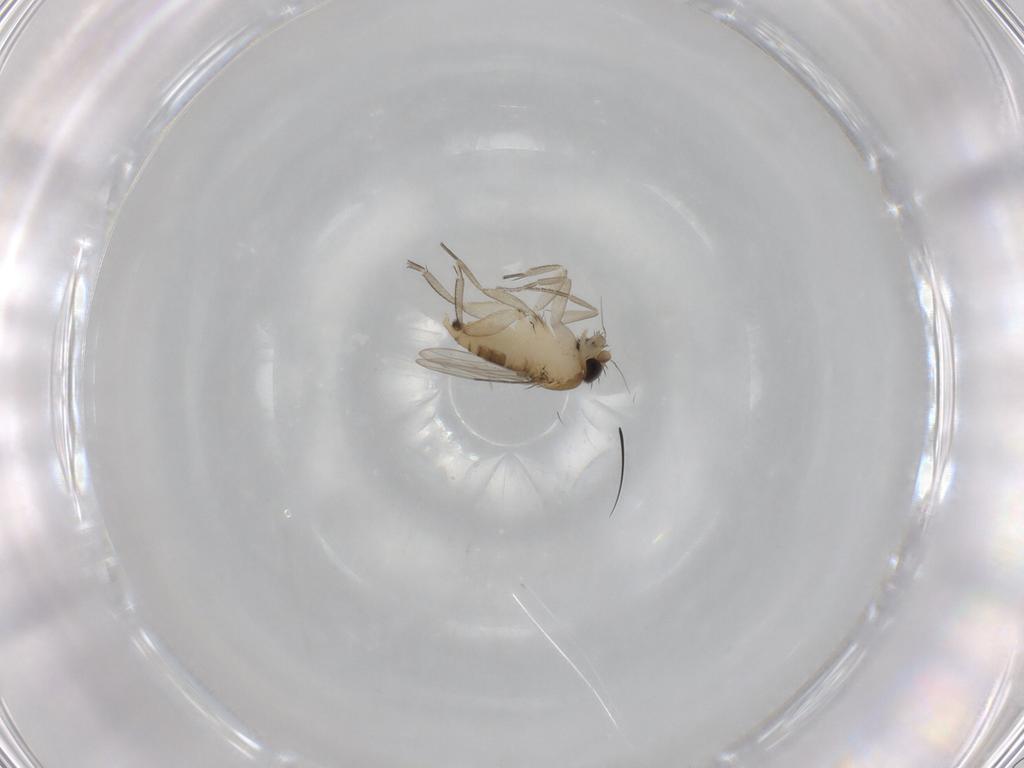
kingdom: Animalia
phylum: Arthropoda
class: Insecta
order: Diptera
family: Phoridae
